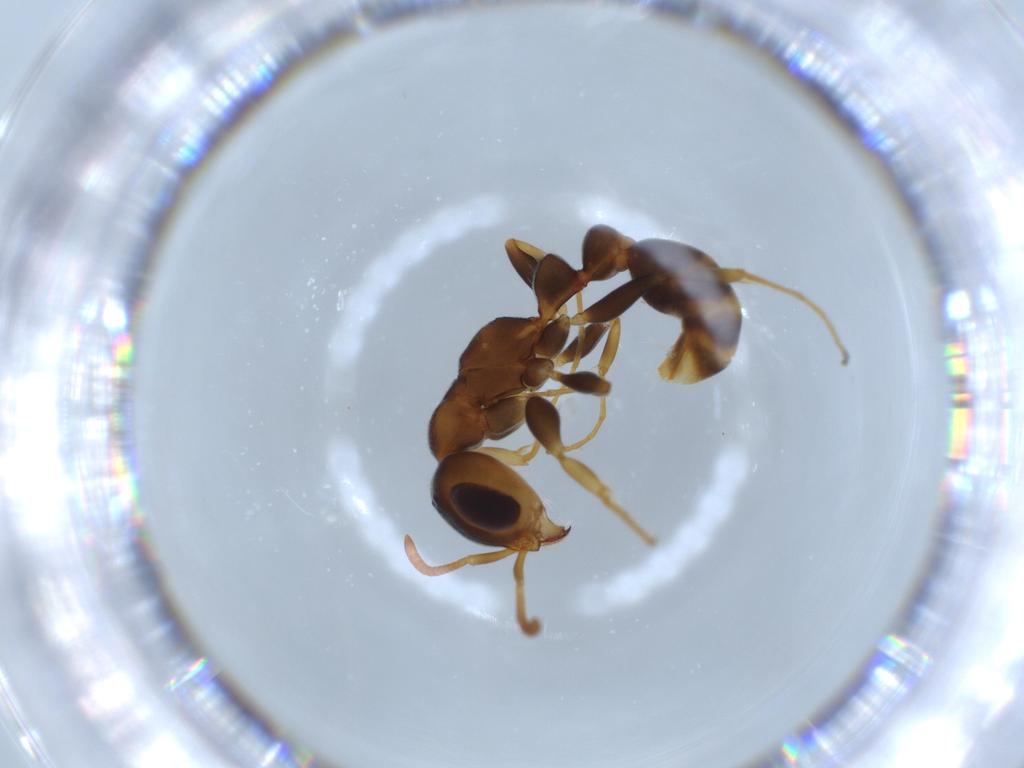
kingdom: Animalia
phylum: Arthropoda
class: Insecta
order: Hymenoptera
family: Formicidae
